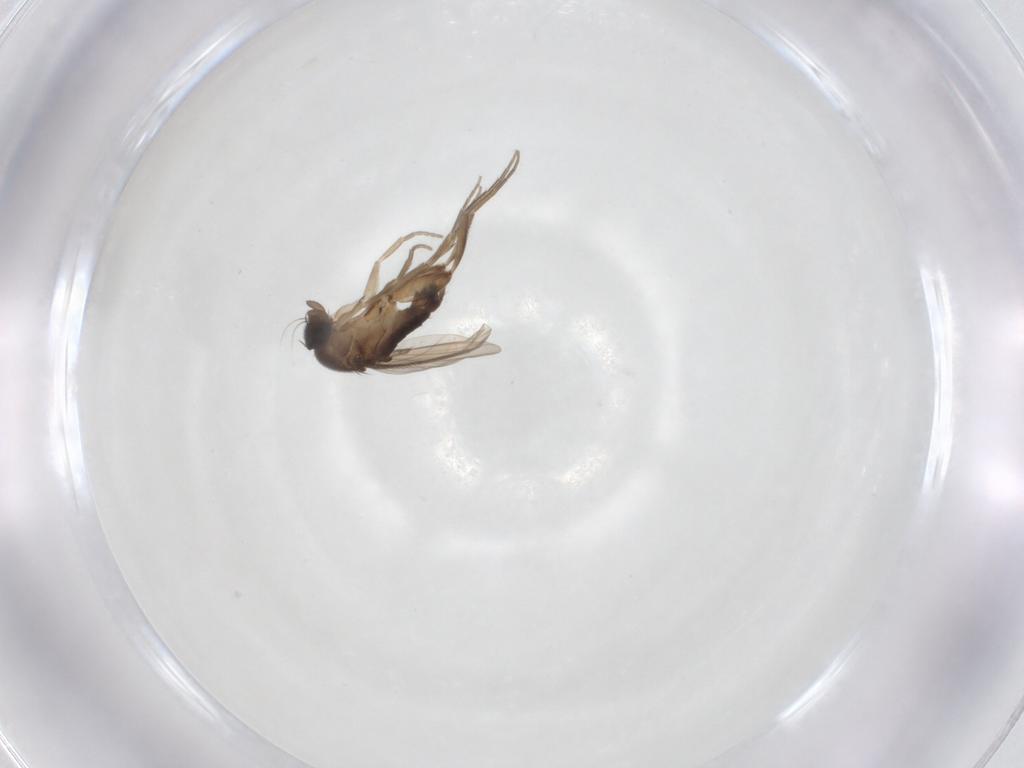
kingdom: Animalia
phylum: Arthropoda
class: Insecta
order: Diptera
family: Phoridae
